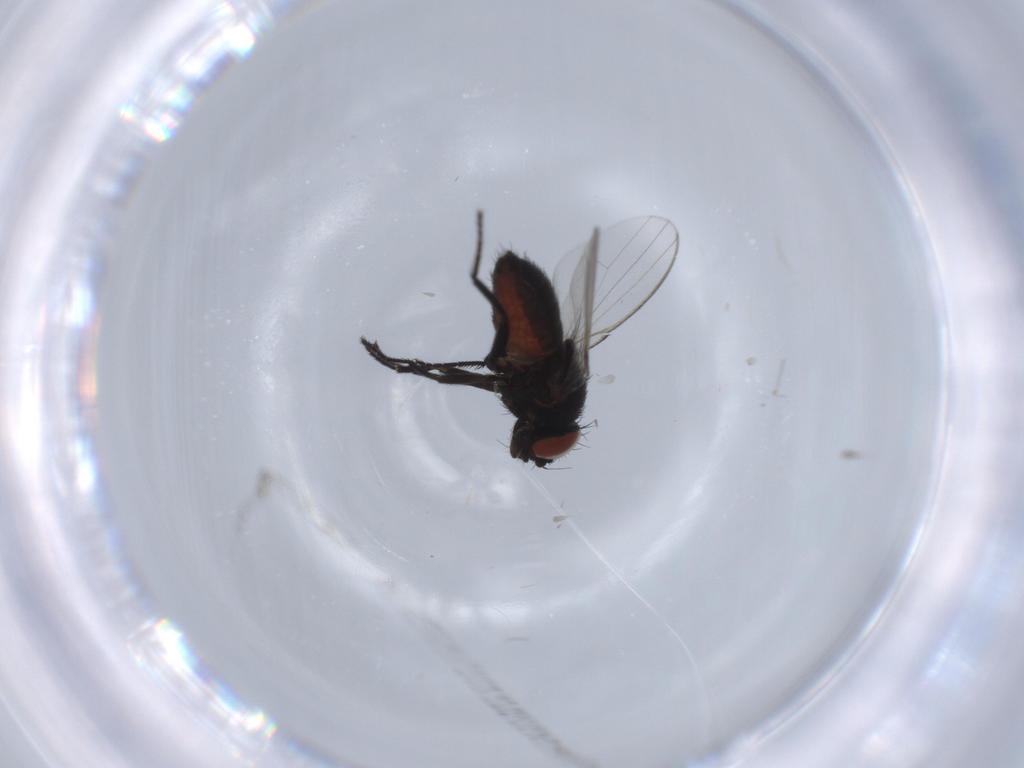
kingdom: Animalia
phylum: Arthropoda
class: Insecta
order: Diptera
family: Milichiidae
